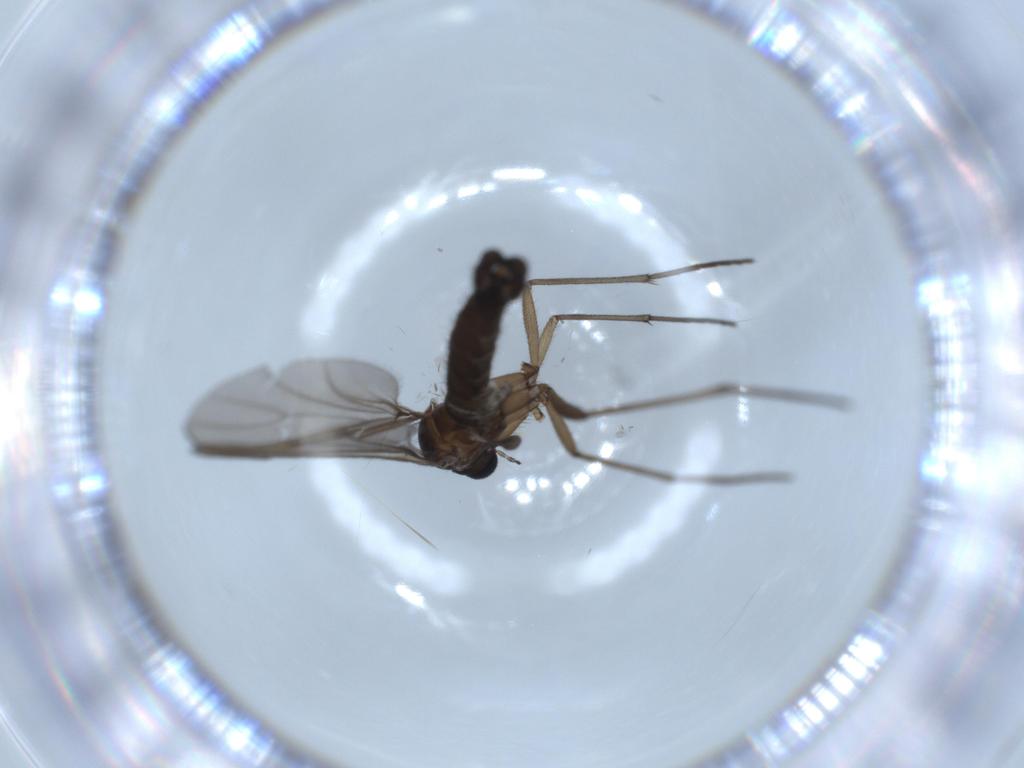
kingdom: Animalia
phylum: Arthropoda
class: Insecta
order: Diptera
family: Sciaridae
